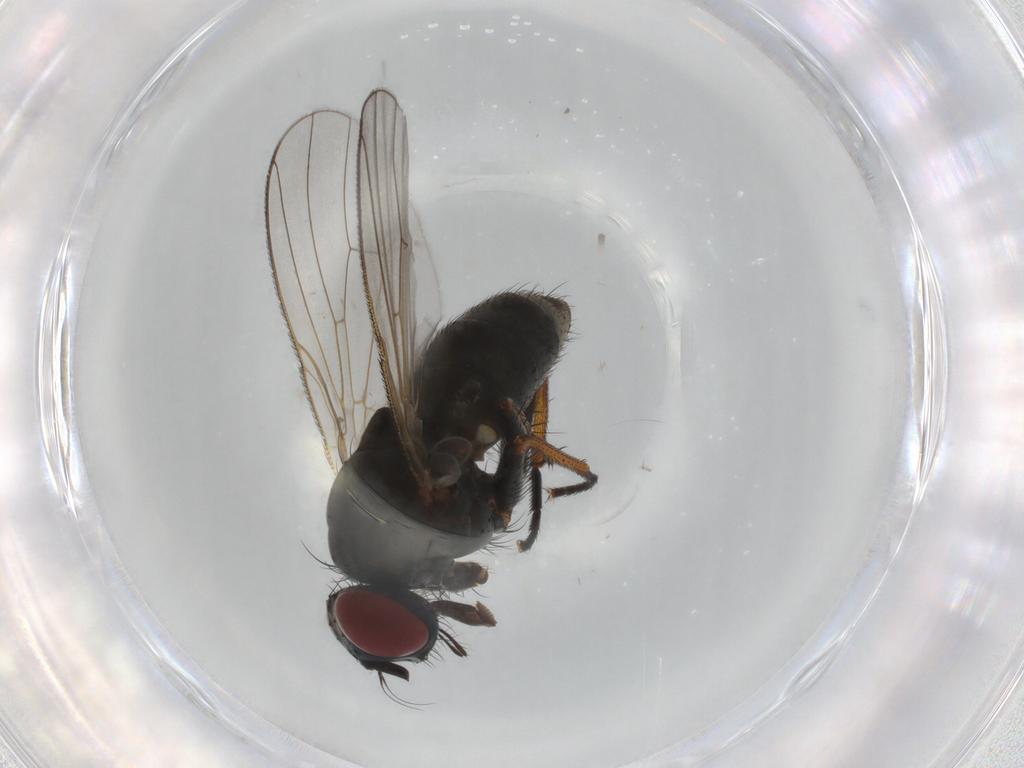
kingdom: Animalia
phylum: Arthropoda
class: Insecta
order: Diptera
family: Muscidae
